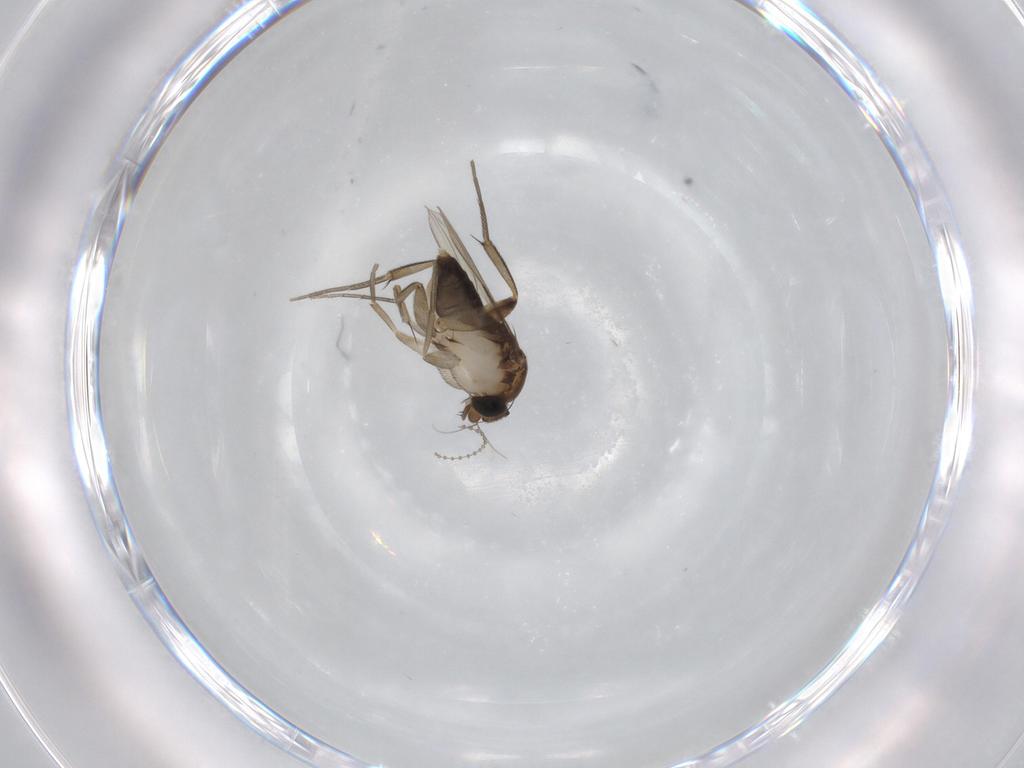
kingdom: Animalia
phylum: Arthropoda
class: Insecta
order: Diptera
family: Phoridae
